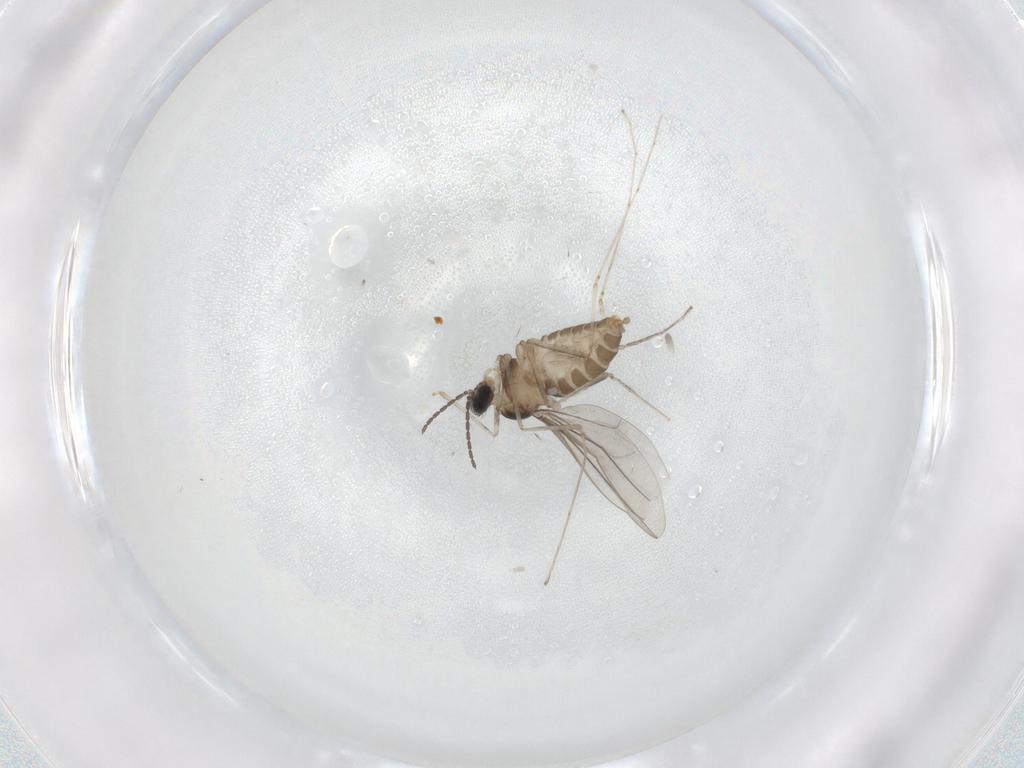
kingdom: Animalia
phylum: Arthropoda
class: Insecta
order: Diptera
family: Cecidomyiidae
